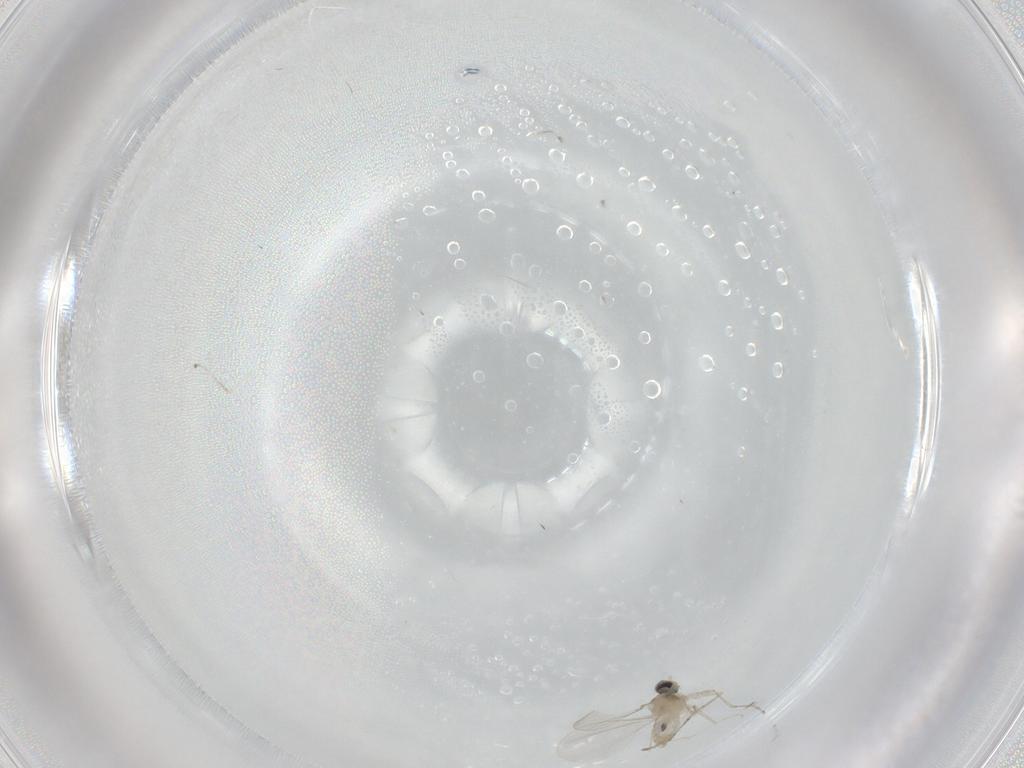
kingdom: Animalia
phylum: Arthropoda
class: Insecta
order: Diptera
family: Cecidomyiidae
